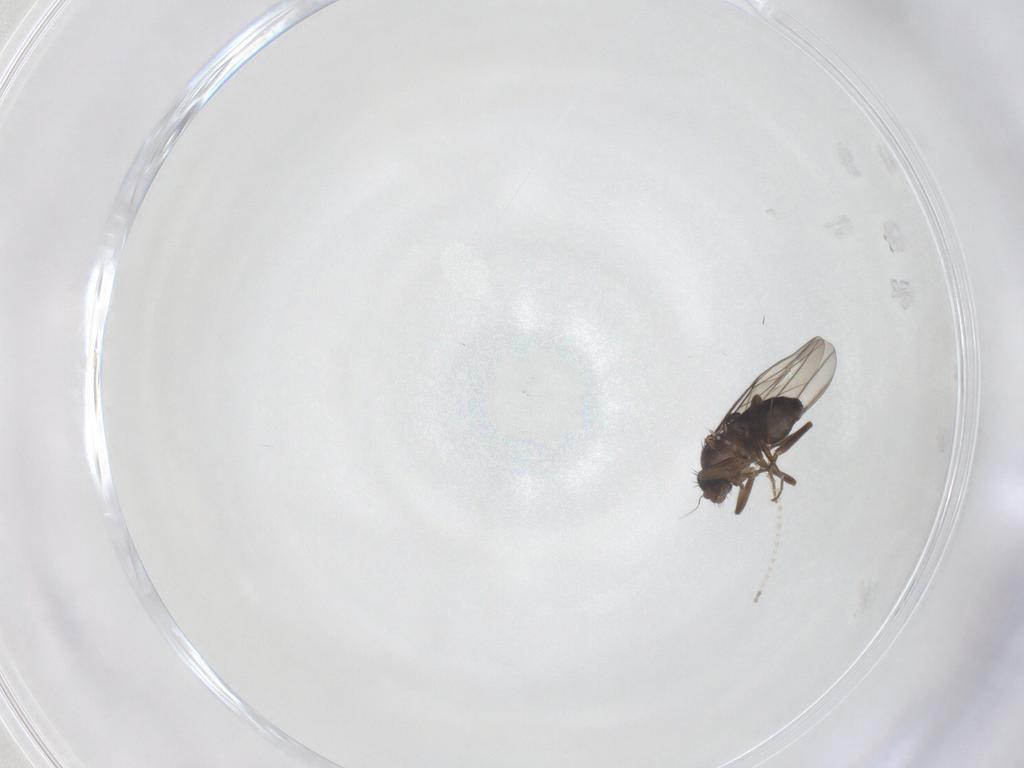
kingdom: Animalia
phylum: Arthropoda
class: Insecta
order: Diptera
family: Phoridae
